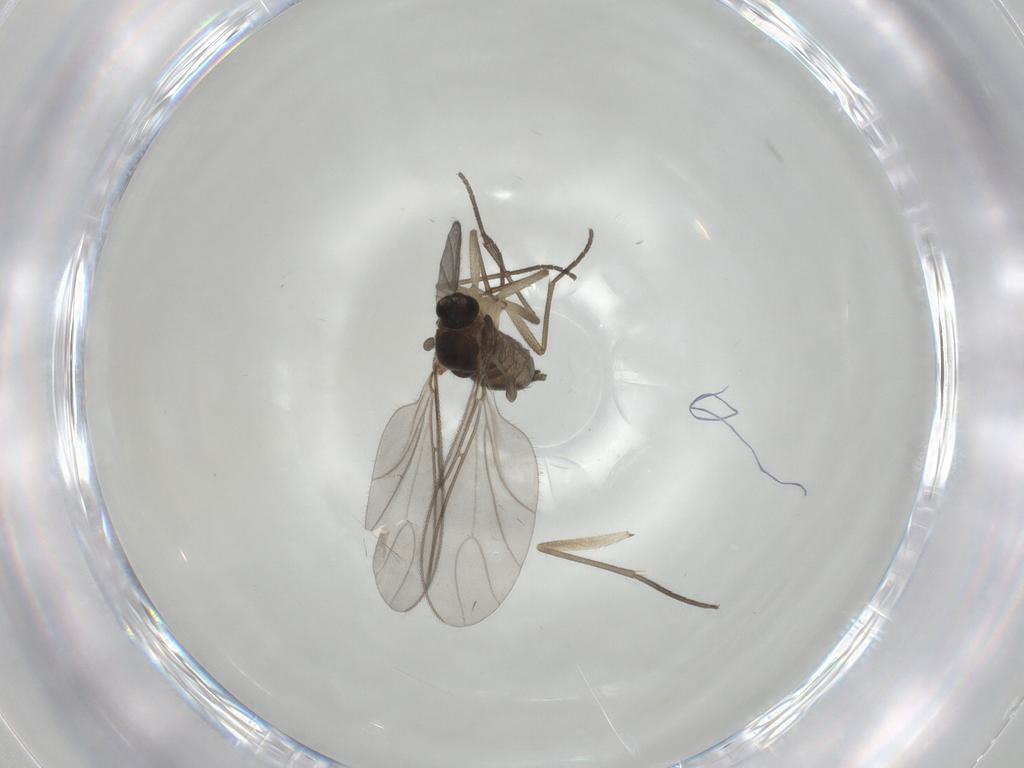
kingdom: Animalia
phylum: Arthropoda
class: Insecta
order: Diptera
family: Sciaridae
